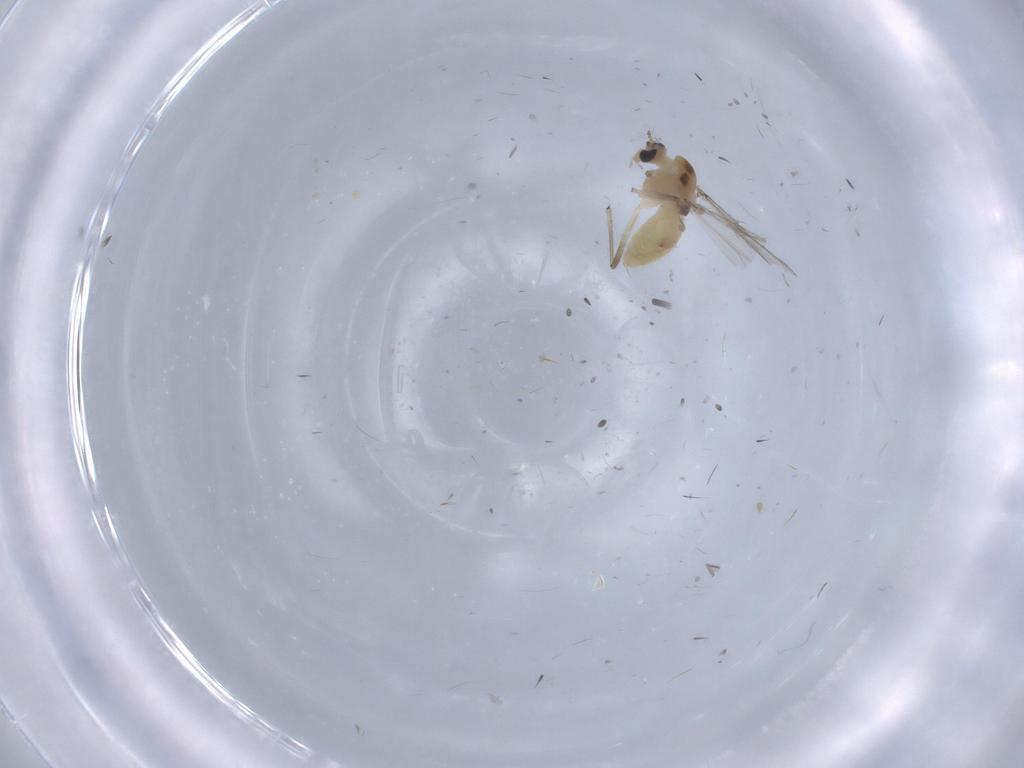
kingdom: Animalia
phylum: Arthropoda
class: Insecta
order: Diptera
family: Chironomidae
